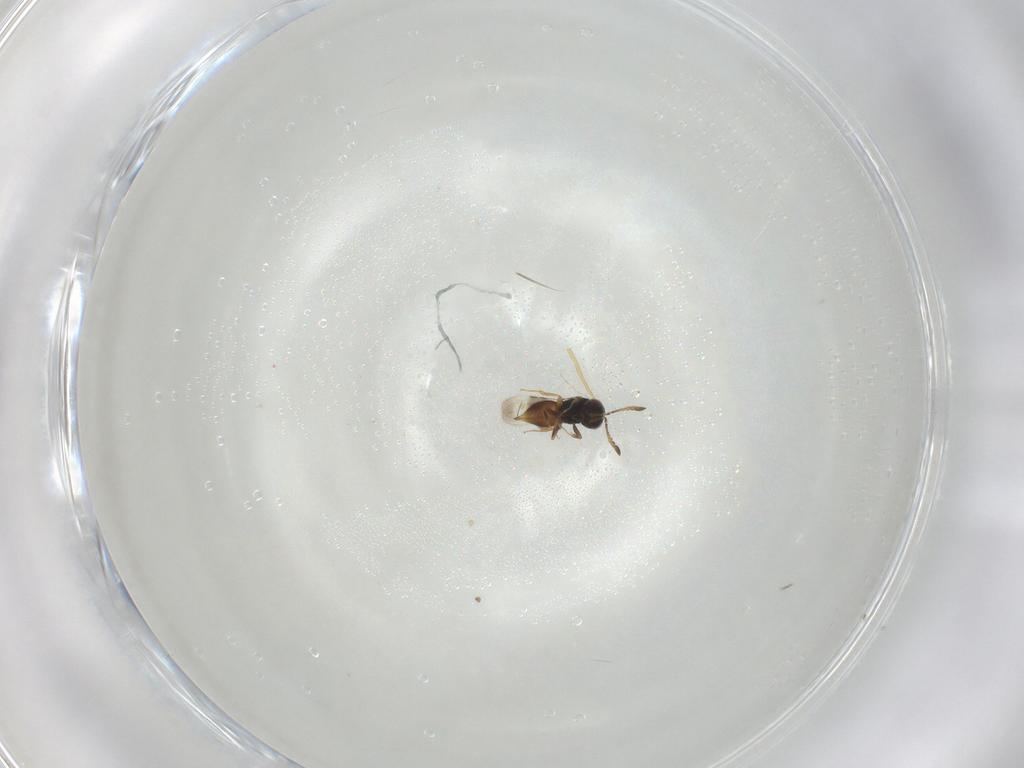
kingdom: Animalia
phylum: Arthropoda
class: Insecta
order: Hymenoptera
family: Scelionidae
